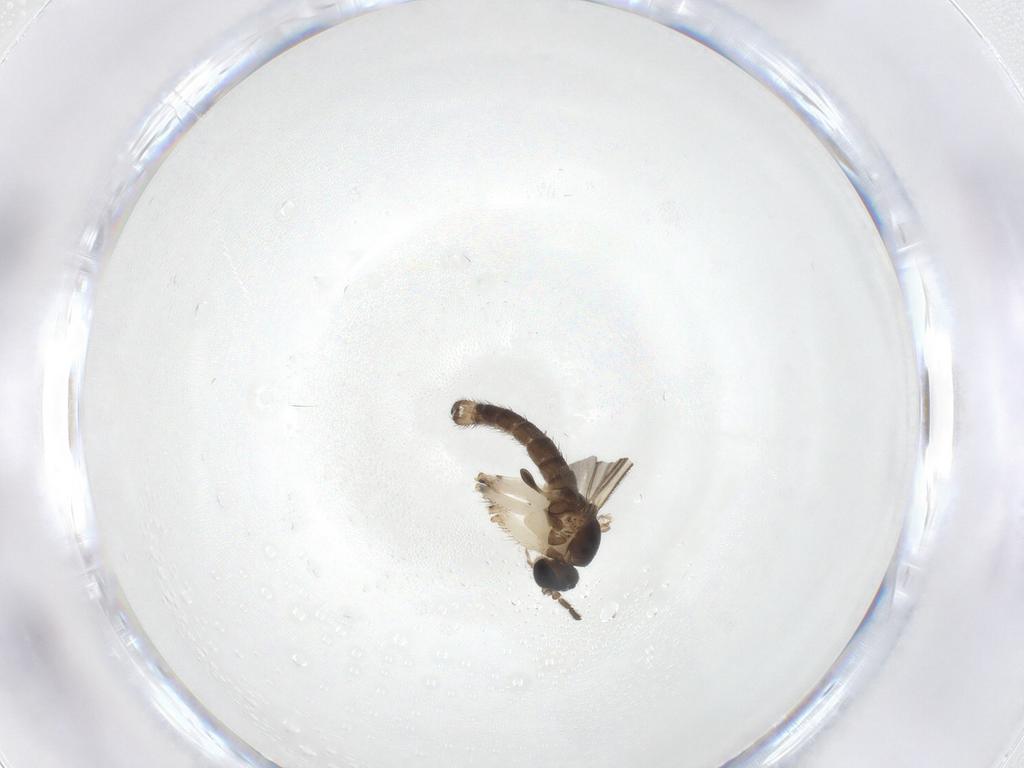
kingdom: Animalia
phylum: Arthropoda
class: Insecta
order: Diptera
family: Sciaridae
